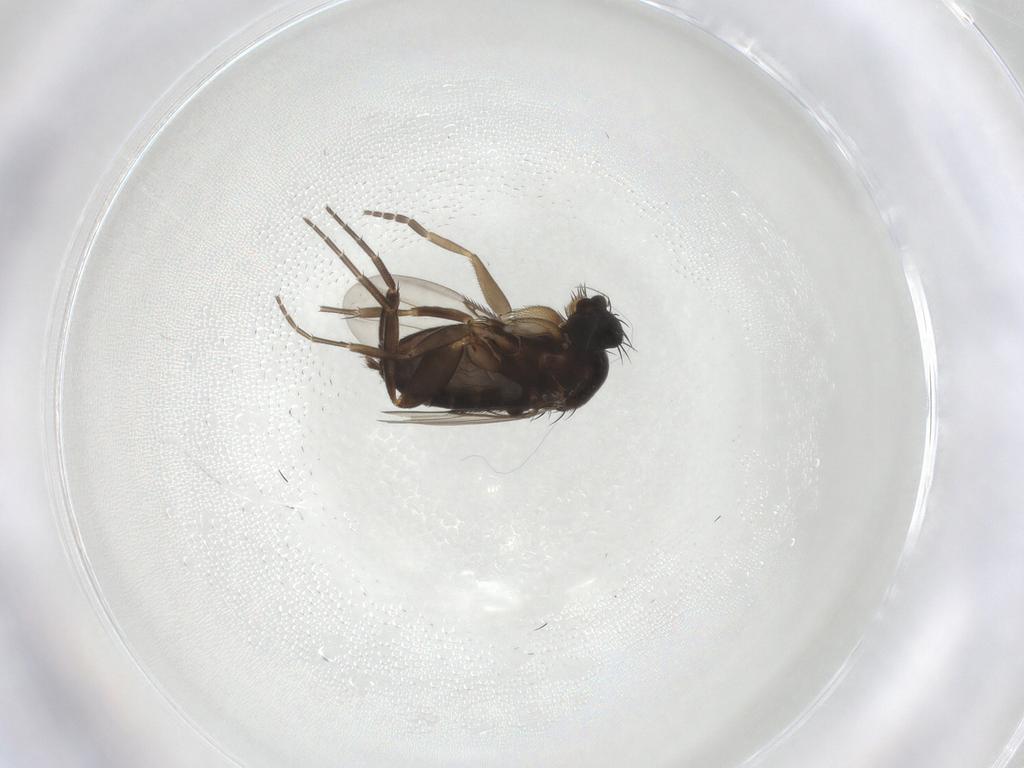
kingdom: Animalia
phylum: Arthropoda
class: Insecta
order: Diptera
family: Phoridae
